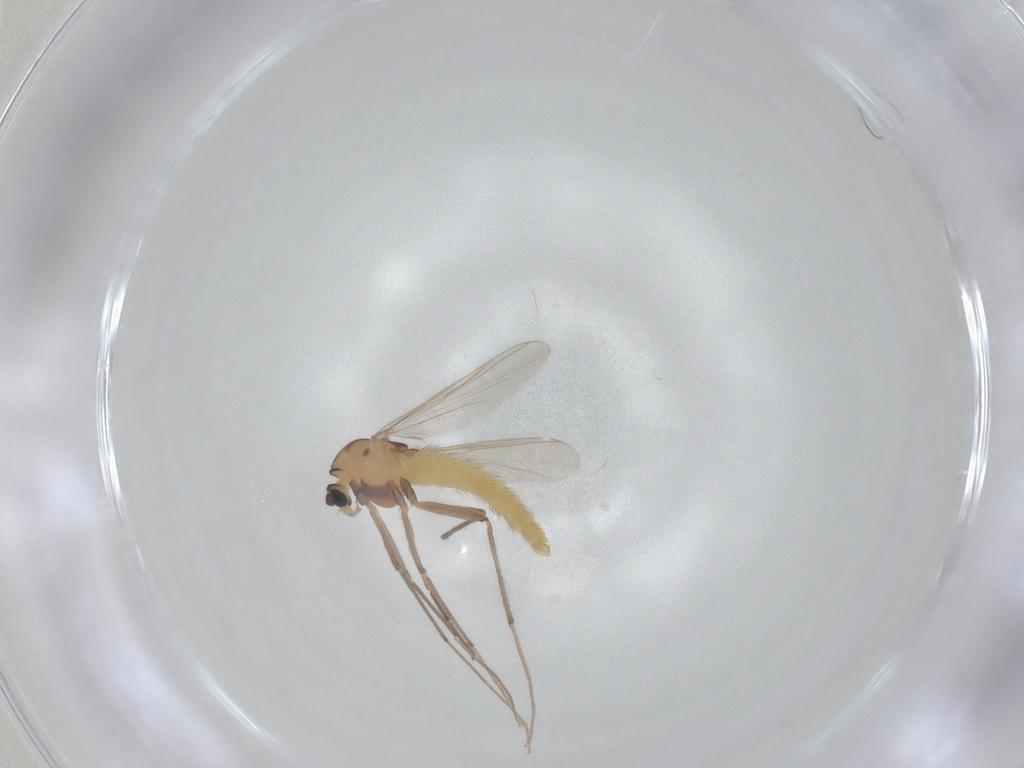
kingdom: Animalia
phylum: Arthropoda
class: Insecta
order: Diptera
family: Chironomidae
